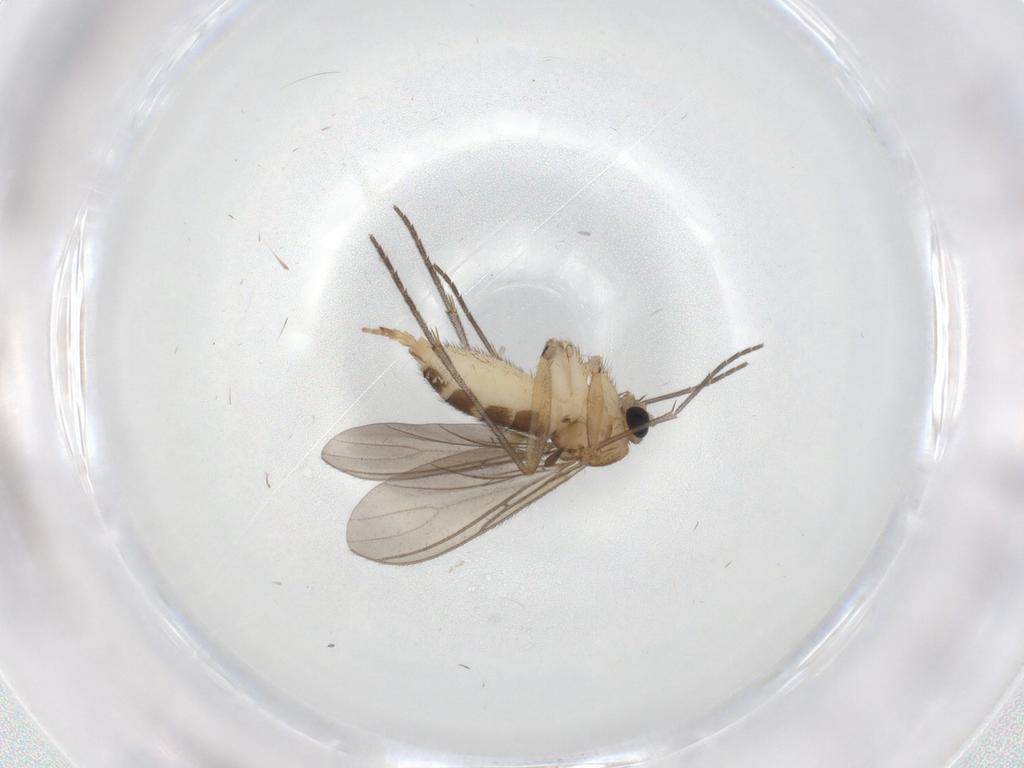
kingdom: Animalia
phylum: Arthropoda
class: Insecta
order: Diptera
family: Sciaridae
